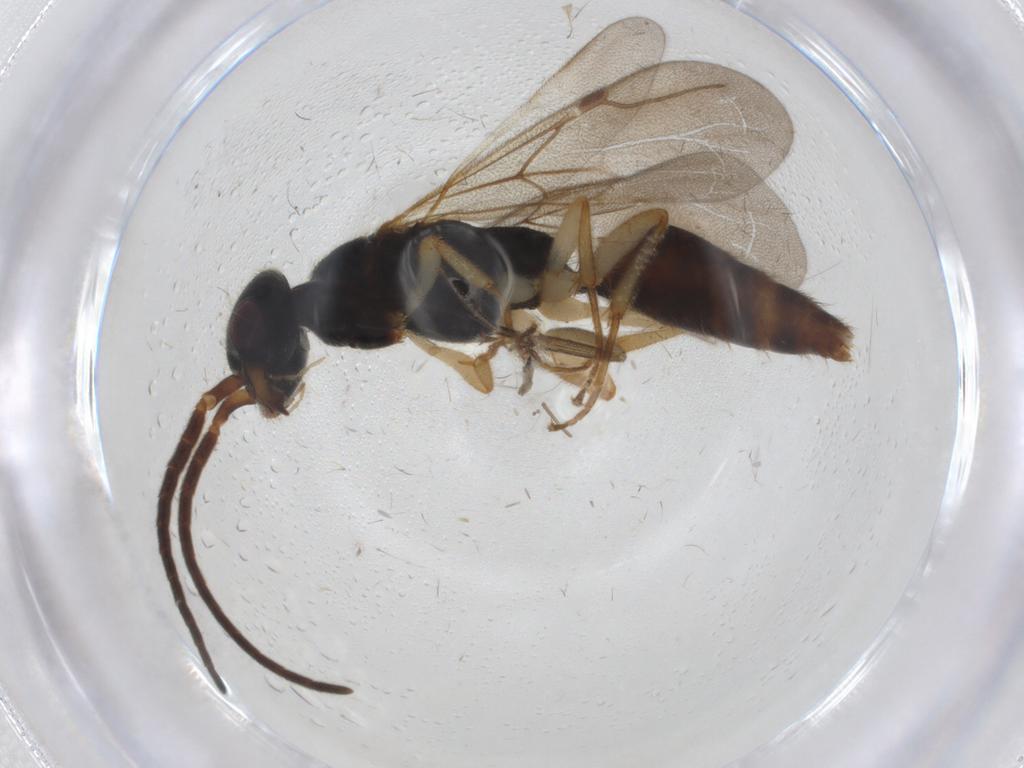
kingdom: Animalia
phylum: Arthropoda
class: Insecta
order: Hymenoptera
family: Bethylidae
